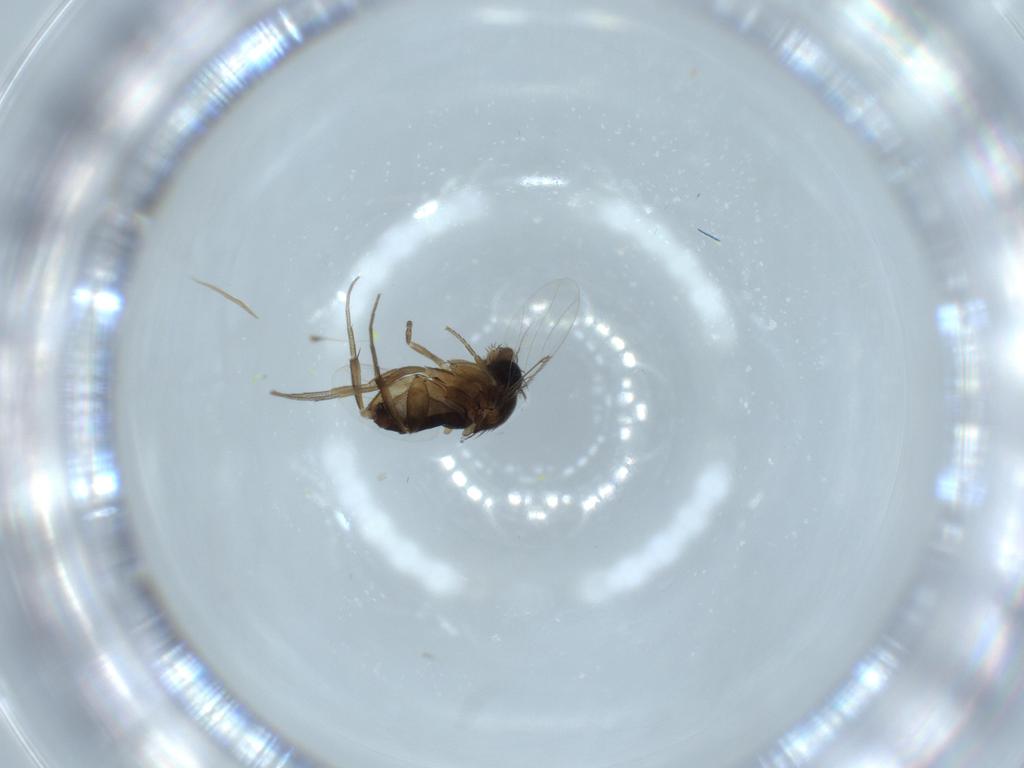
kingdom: Animalia
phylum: Arthropoda
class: Insecta
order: Diptera
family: Phoridae
